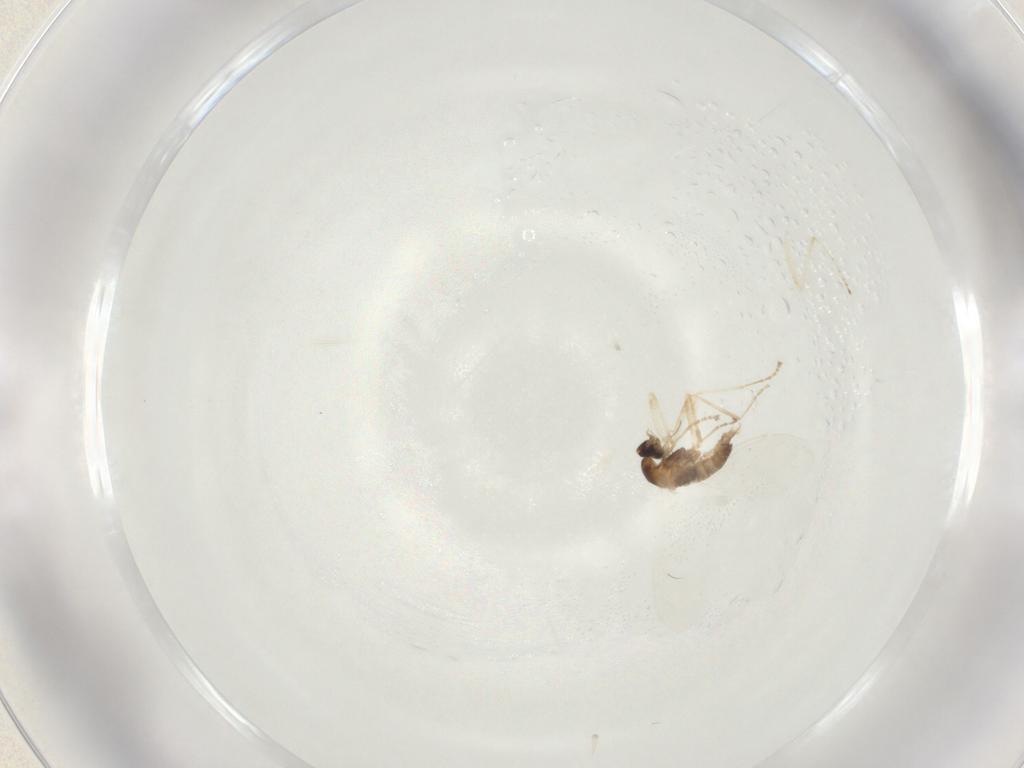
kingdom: Animalia
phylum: Arthropoda
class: Insecta
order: Diptera
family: Cecidomyiidae
